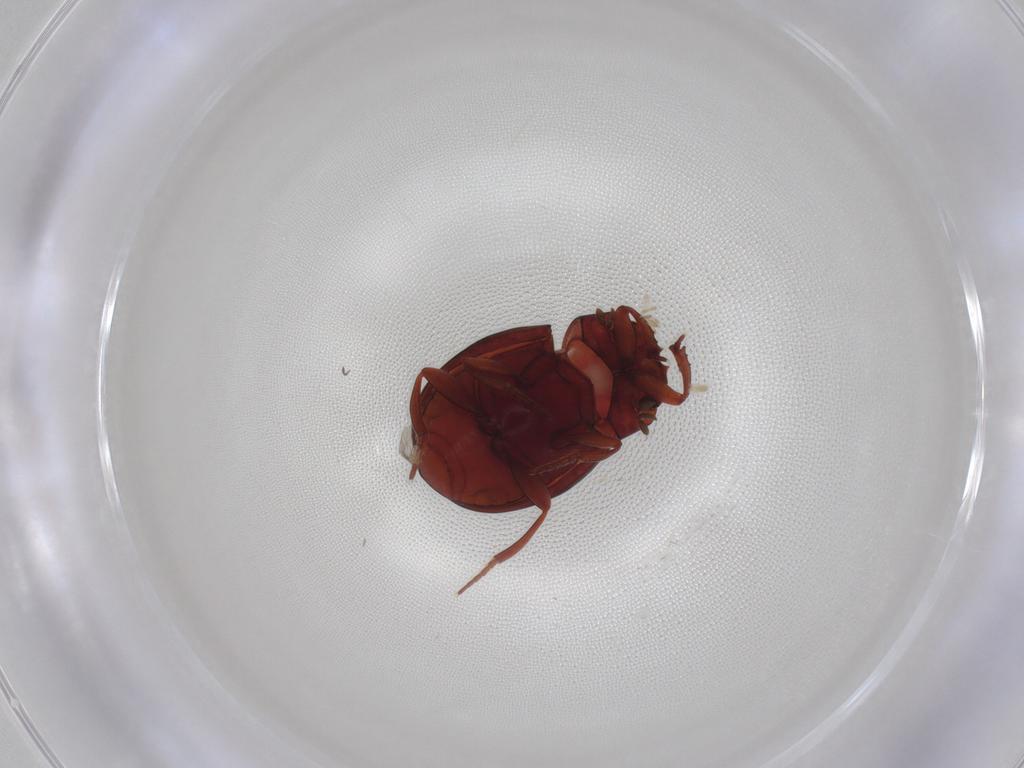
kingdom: Animalia
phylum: Arthropoda
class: Insecta
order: Coleoptera
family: Scarabaeidae
